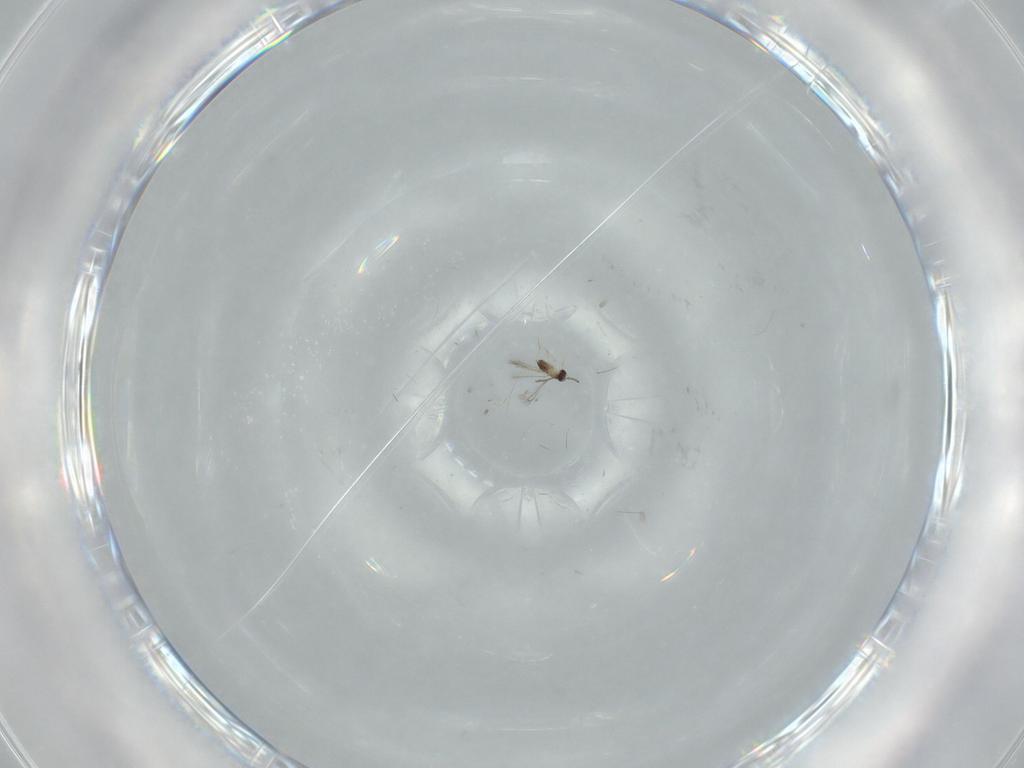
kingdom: Animalia
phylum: Arthropoda
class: Insecta
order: Hymenoptera
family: Mymaridae
